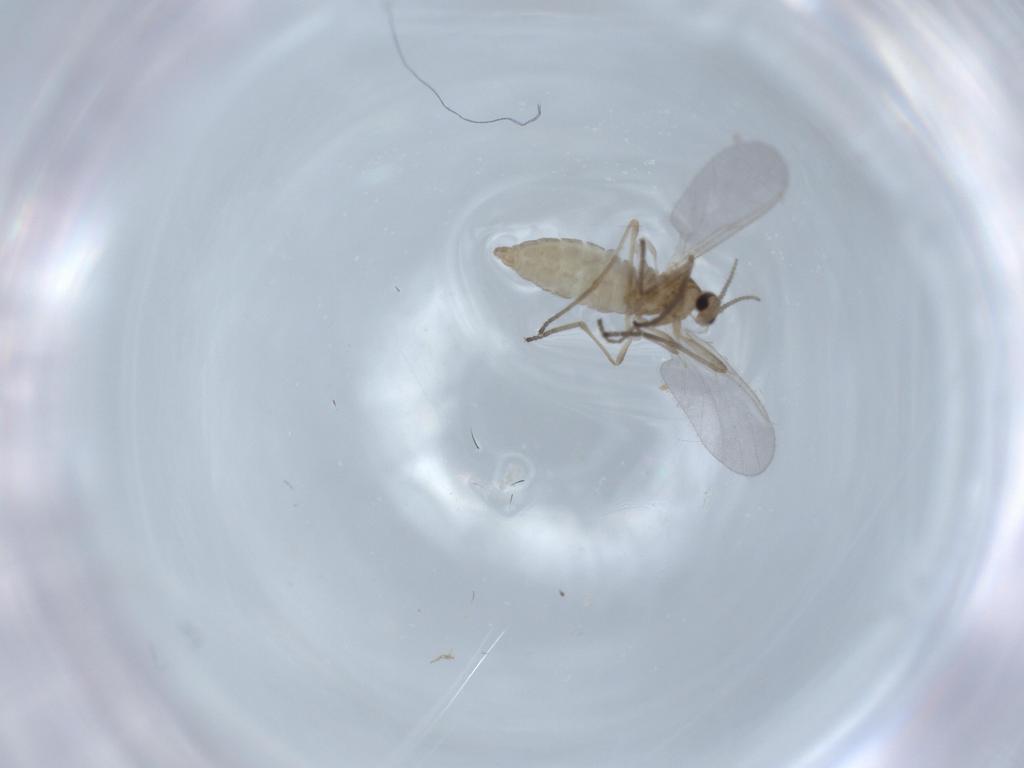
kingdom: Animalia
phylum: Arthropoda
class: Insecta
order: Diptera
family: Cecidomyiidae
